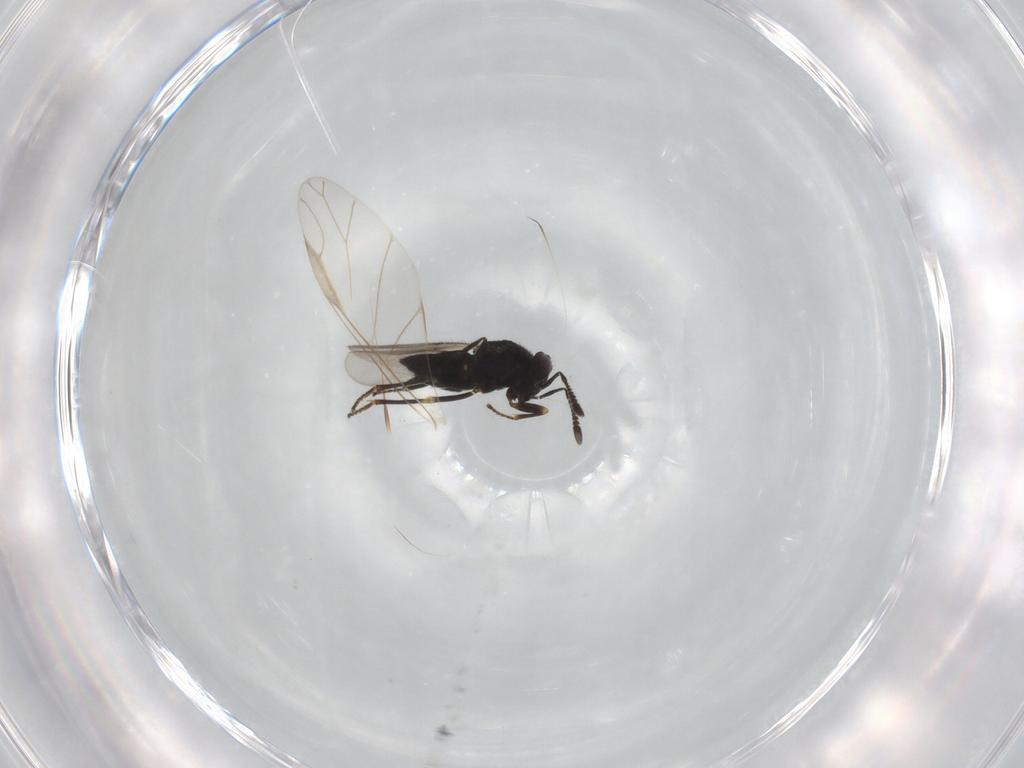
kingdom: Animalia
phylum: Arthropoda
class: Insecta
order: Hymenoptera
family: Encyrtidae
